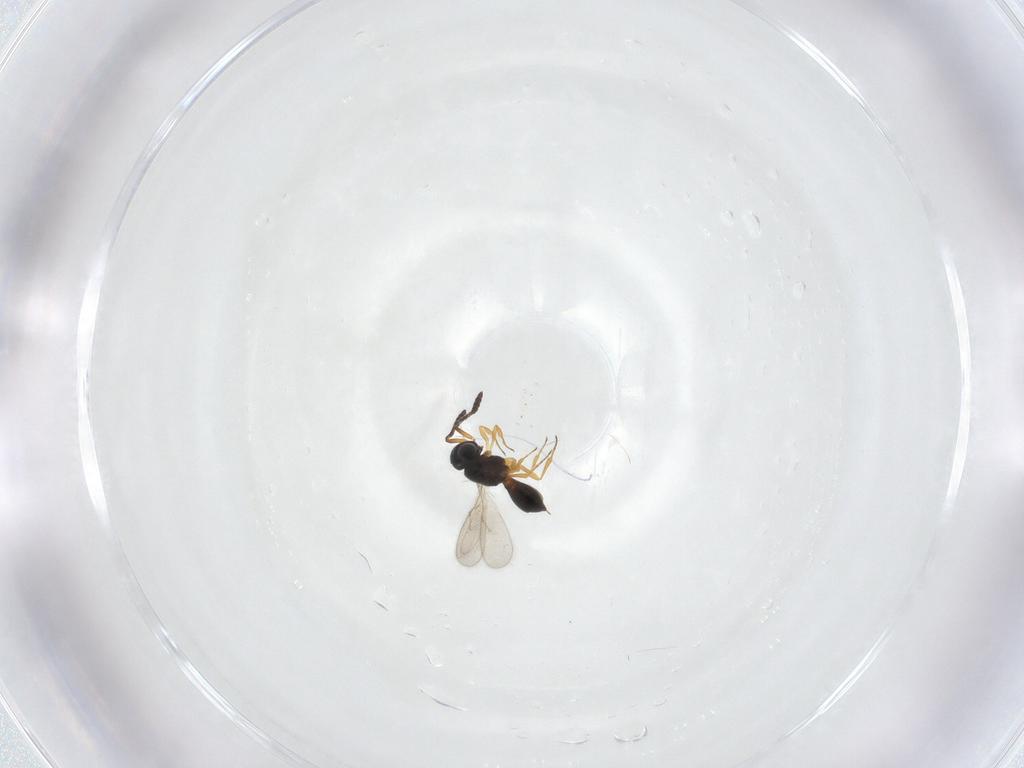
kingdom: Animalia
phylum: Arthropoda
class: Insecta
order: Hymenoptera
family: Scelionidae
